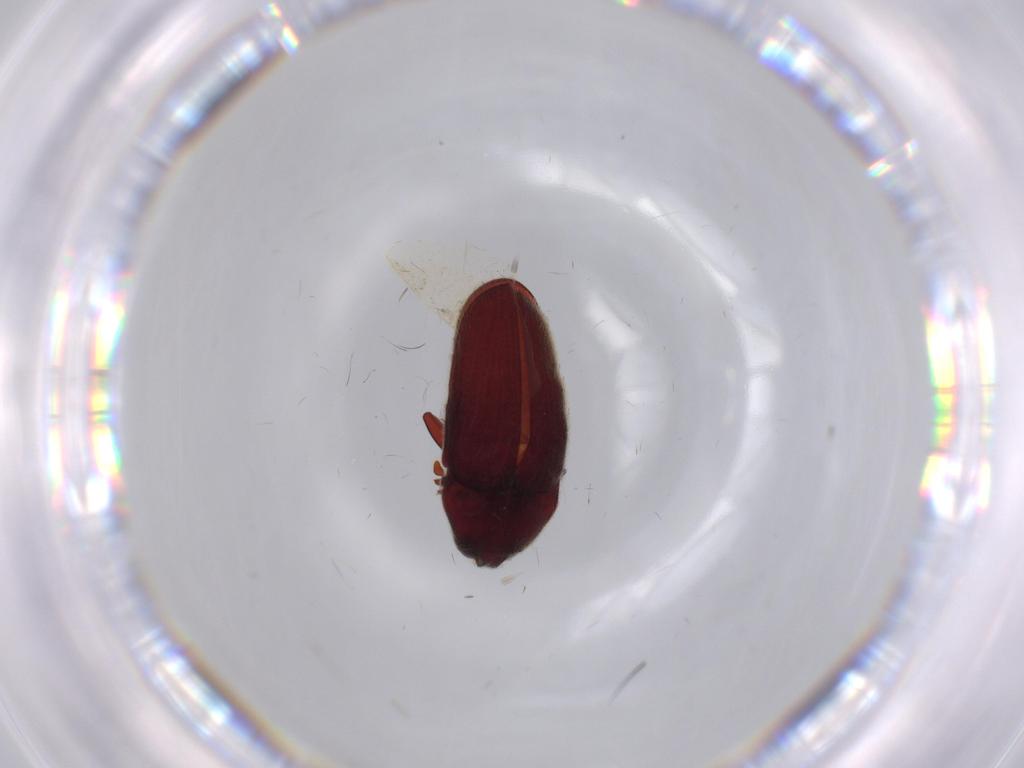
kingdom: Animalia
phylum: Arthropoda
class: Insecta
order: Coleoptera
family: Throscidae
